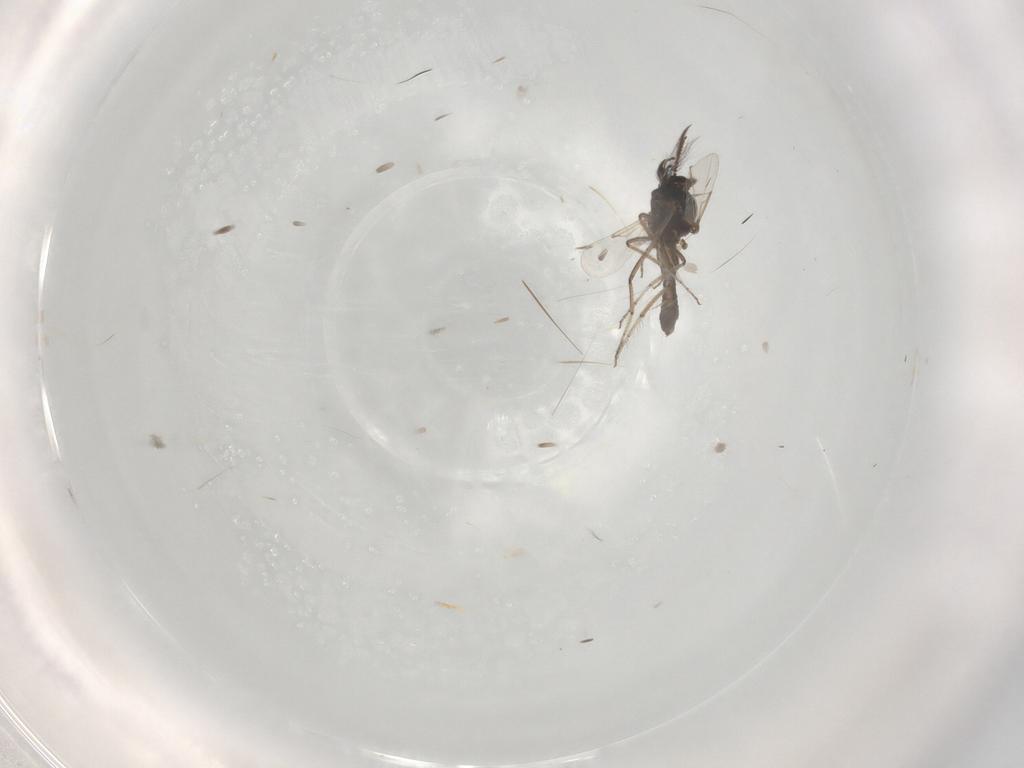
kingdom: Animalia
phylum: Arthropoda
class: Insecta
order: Diptera
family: Ceratopogonidae
